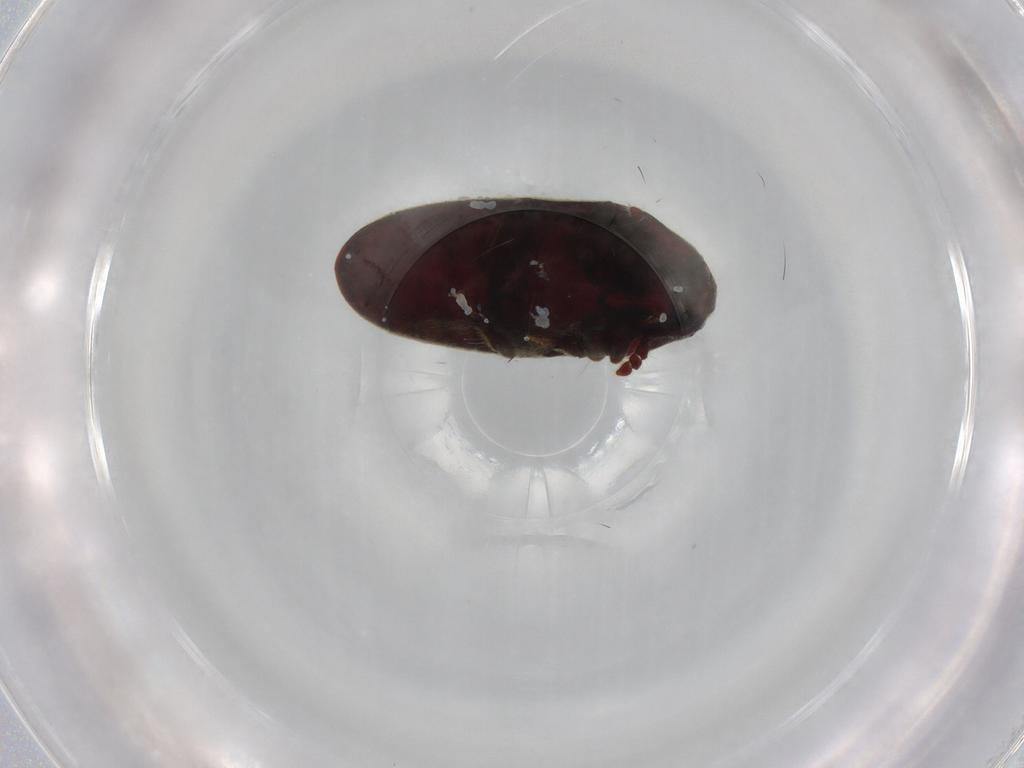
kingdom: Animalia
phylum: Arthropoda
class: Insecta
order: Coleoptera
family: Throscidae
